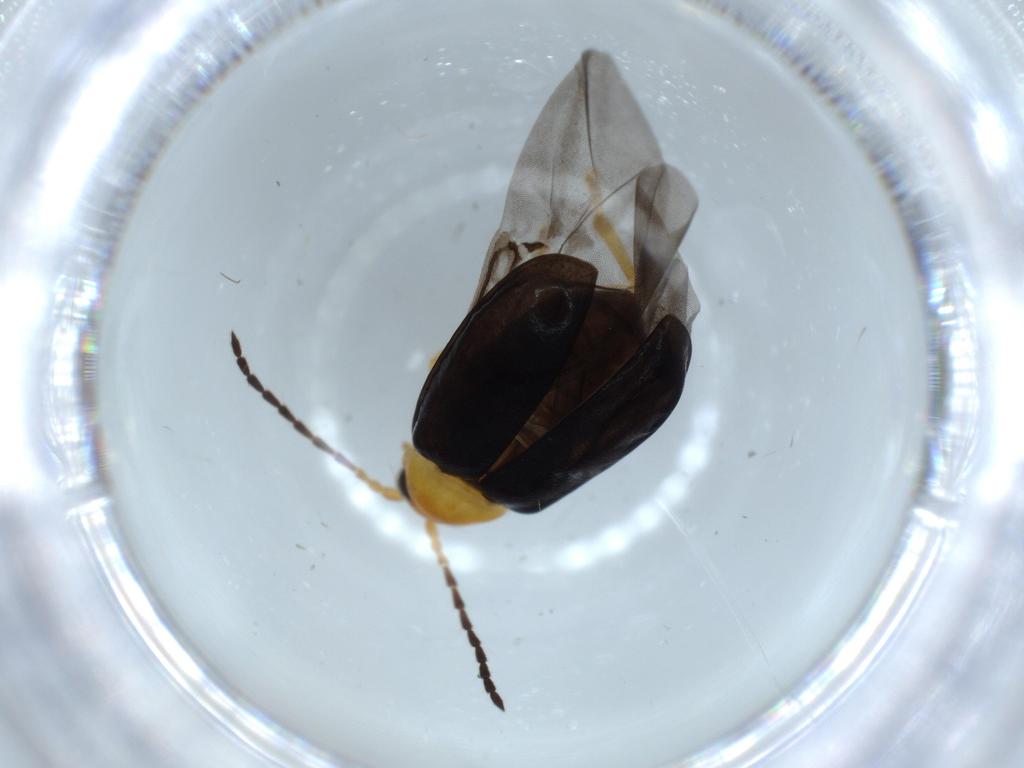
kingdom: Animalia
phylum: Arthropoda
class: Insecta
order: Coleoptera
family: Chrysomelidae
